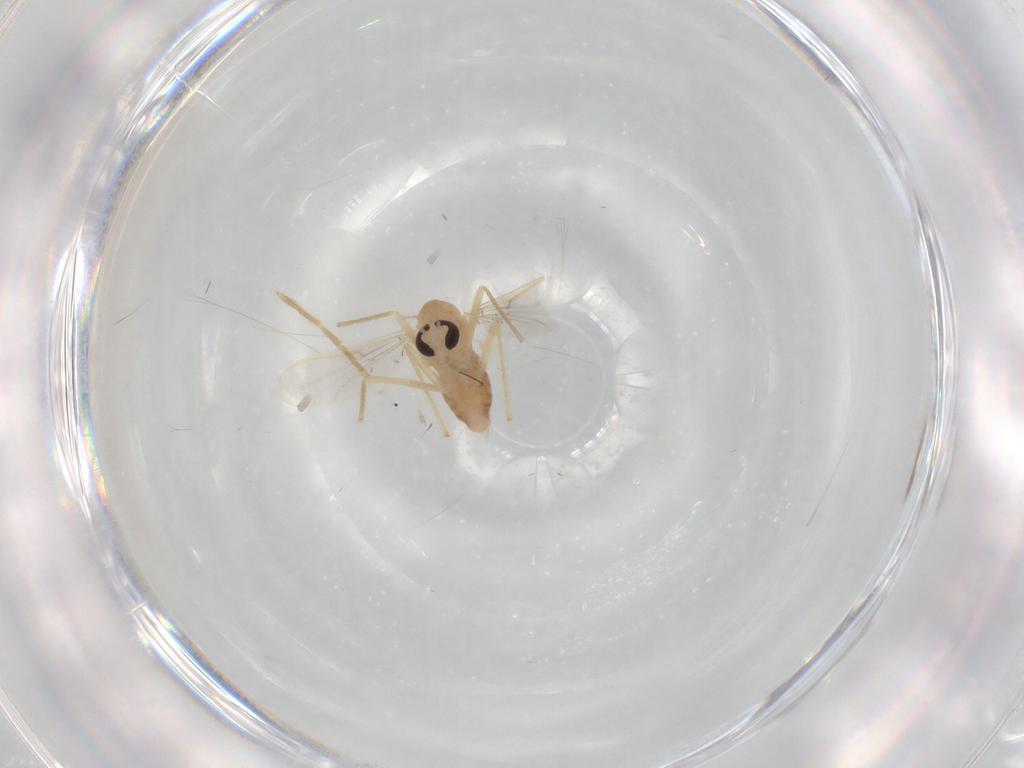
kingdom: Animalia
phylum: Arthropoda
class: Insecta
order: Diptera
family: Chironomidae
